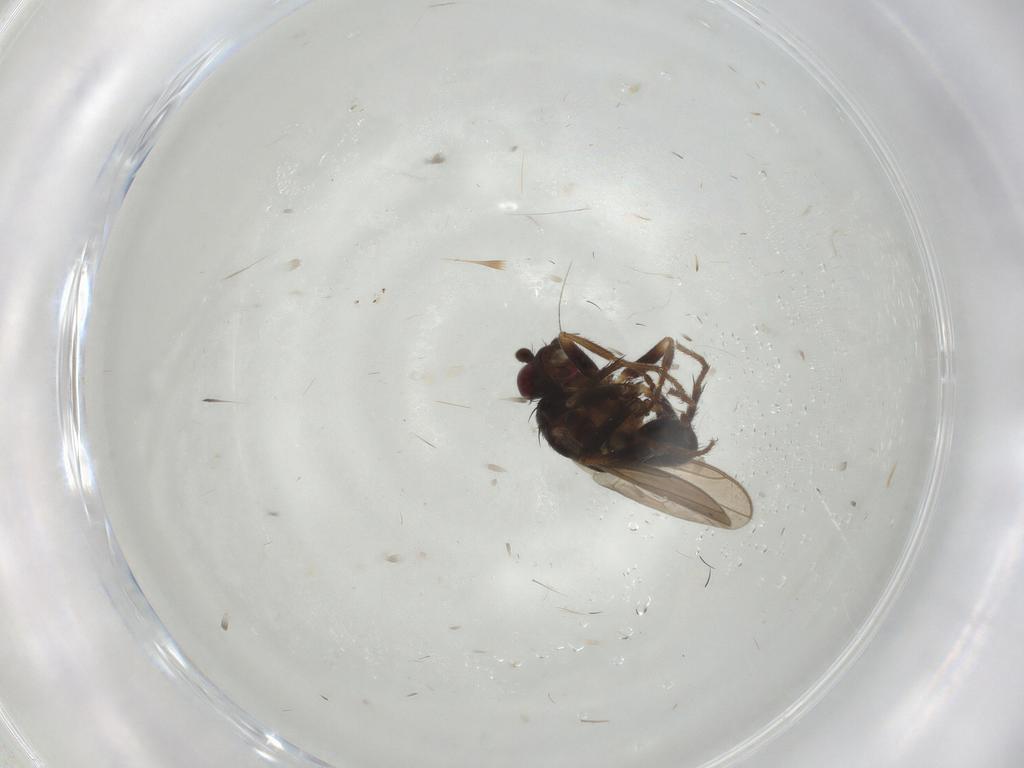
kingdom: Animalia
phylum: Arthropoda
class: Insecta
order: Diptera
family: Sphaeroceridae
